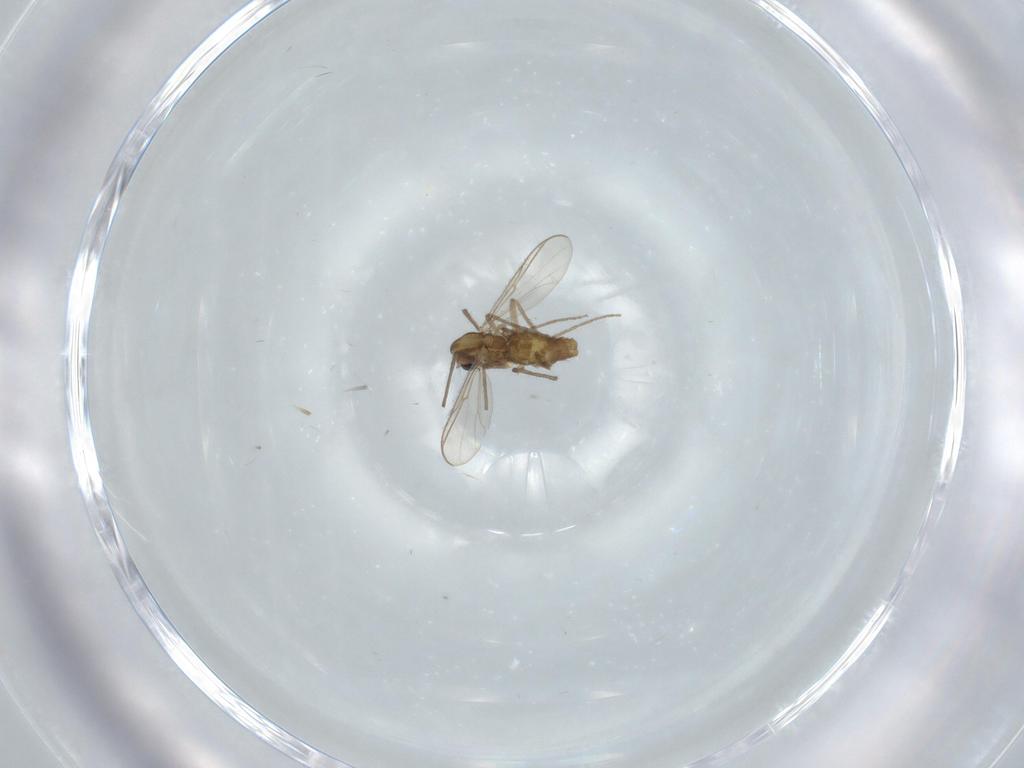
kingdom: Animalia
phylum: Arthropoda
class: Insecta
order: Diptera
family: Chironomidae
